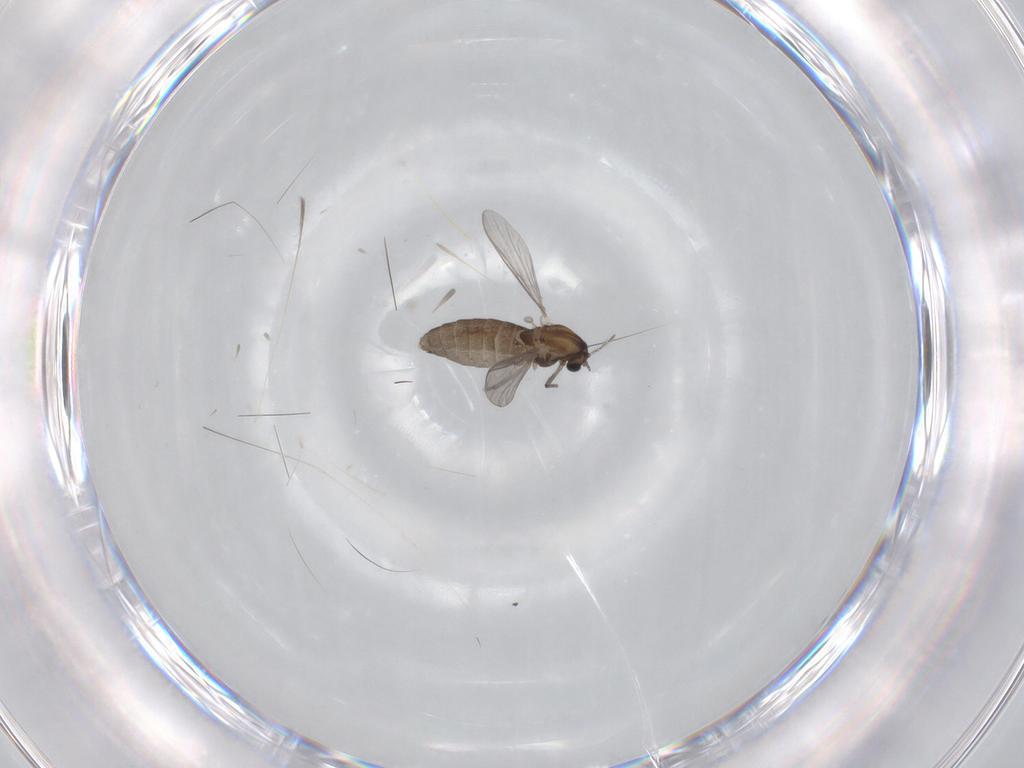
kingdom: Animalia
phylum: Arthropoda
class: Insecta
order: Diptera
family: Chironomidae
